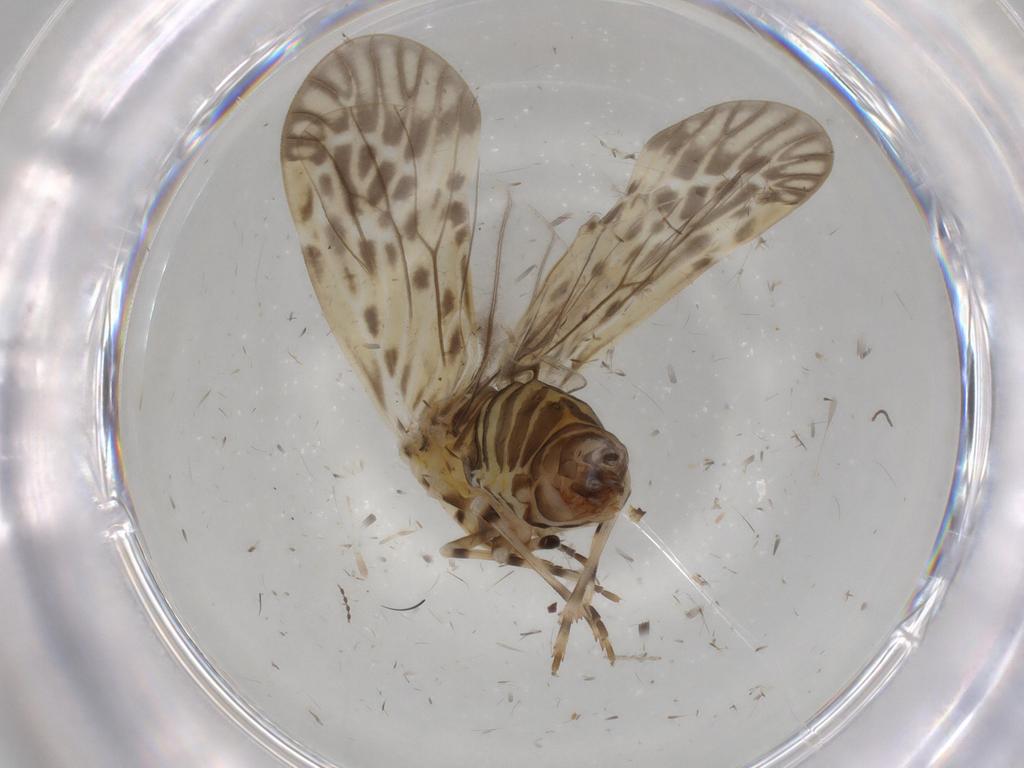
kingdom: Animalia
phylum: Arthropoda
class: Insecta
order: Hemiptera
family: Derbidae
